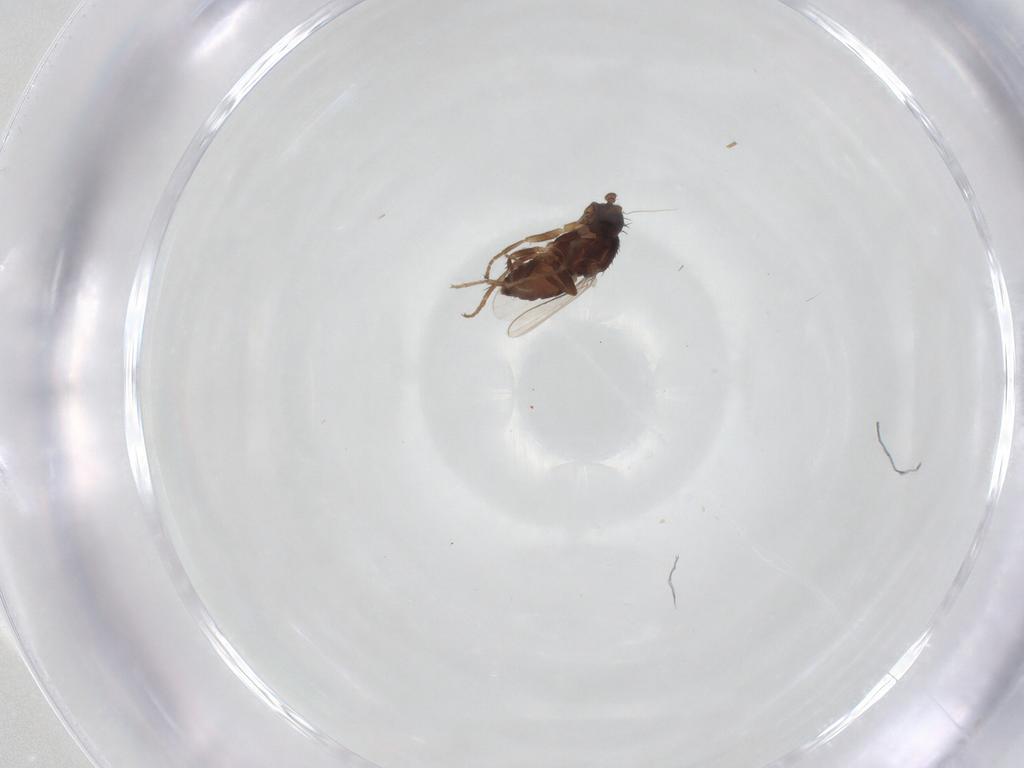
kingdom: Animalia
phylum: Arthropoda
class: Insecta
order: Diptera
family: Sphaeroceridae
